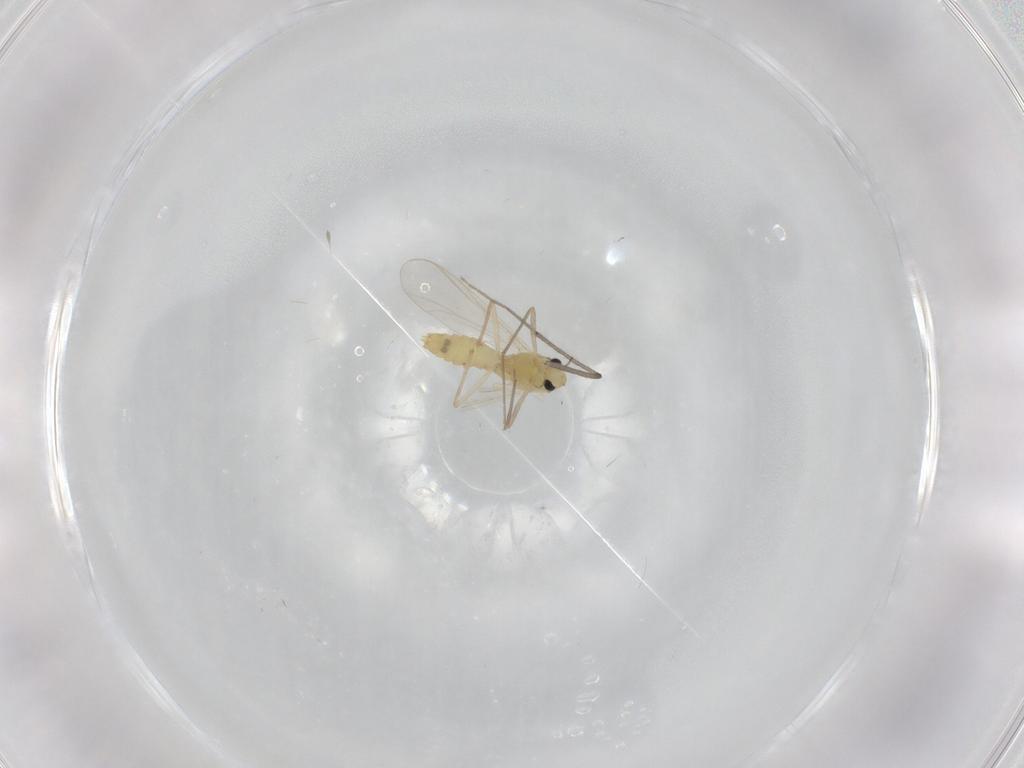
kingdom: Animalia
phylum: Arthropoda
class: Insecta
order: Diptera
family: Chironomidae
